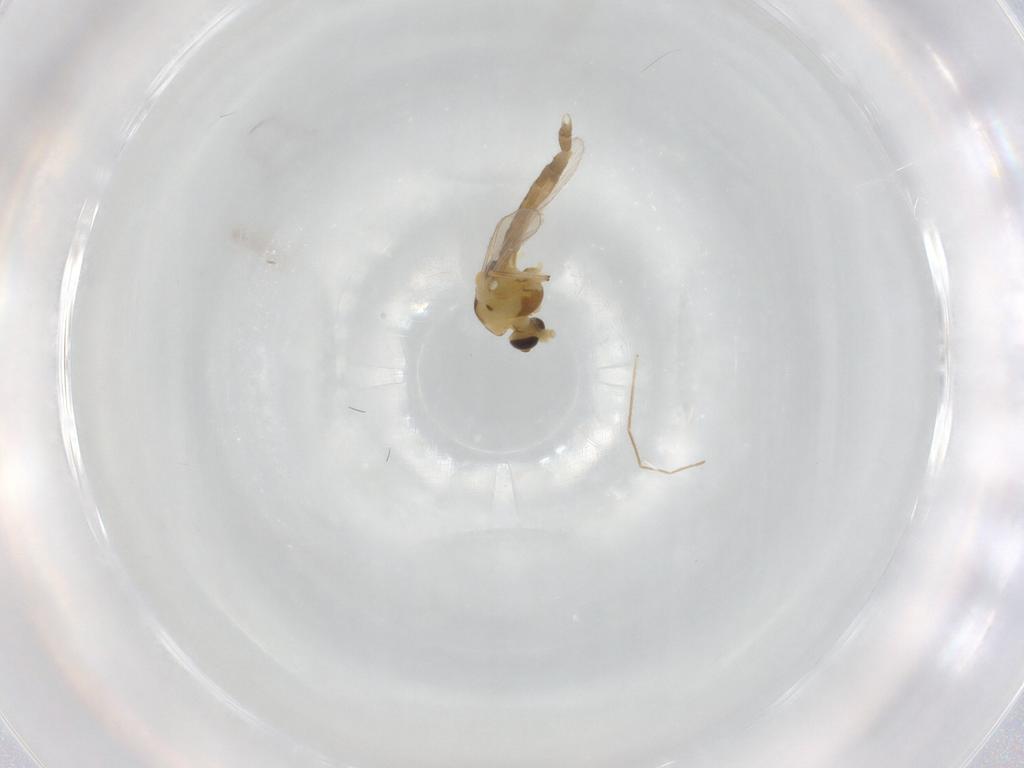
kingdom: Animalia
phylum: Arthropoda
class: Insecta
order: Diptera
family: Chironomidae
